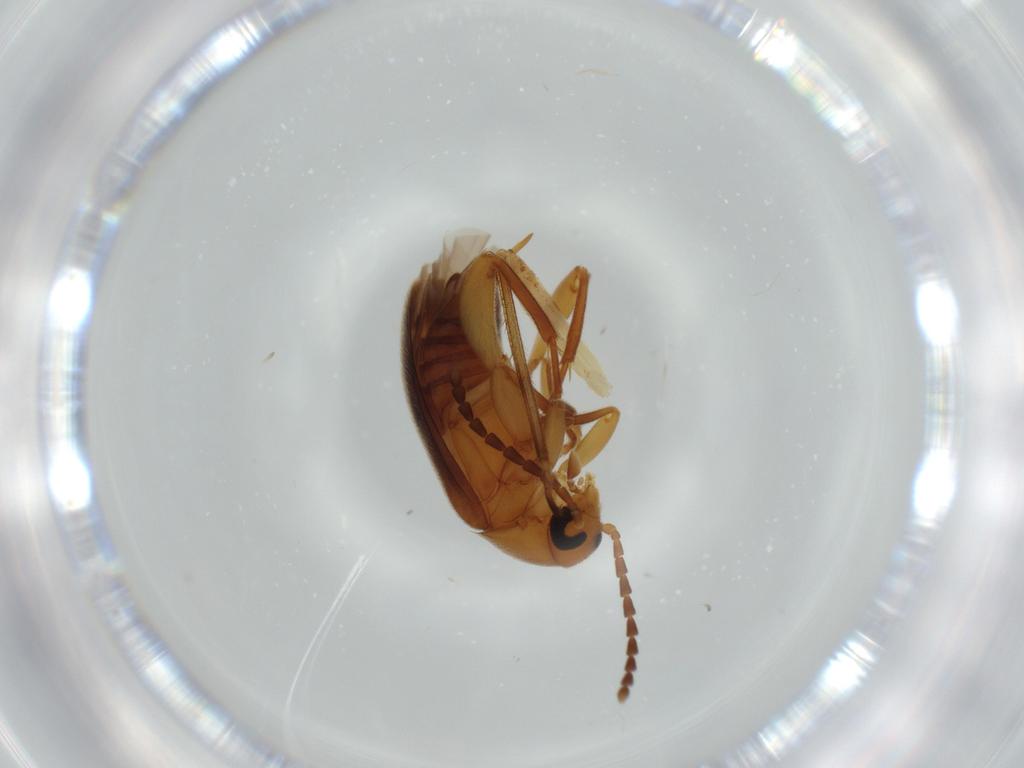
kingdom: Animalia
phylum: Arthropoda
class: Insecta
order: Coleoptera
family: Scraptiidae
